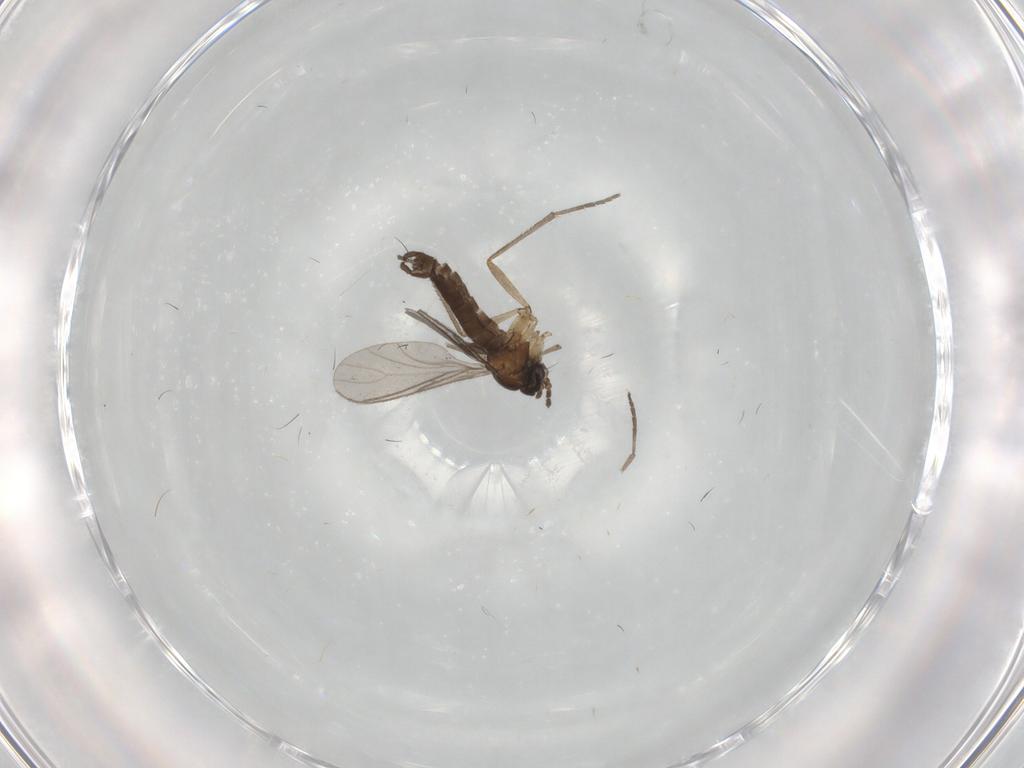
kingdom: Animalia
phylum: Arthropoda
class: Insecta
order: Diptera
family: Sciaridae
